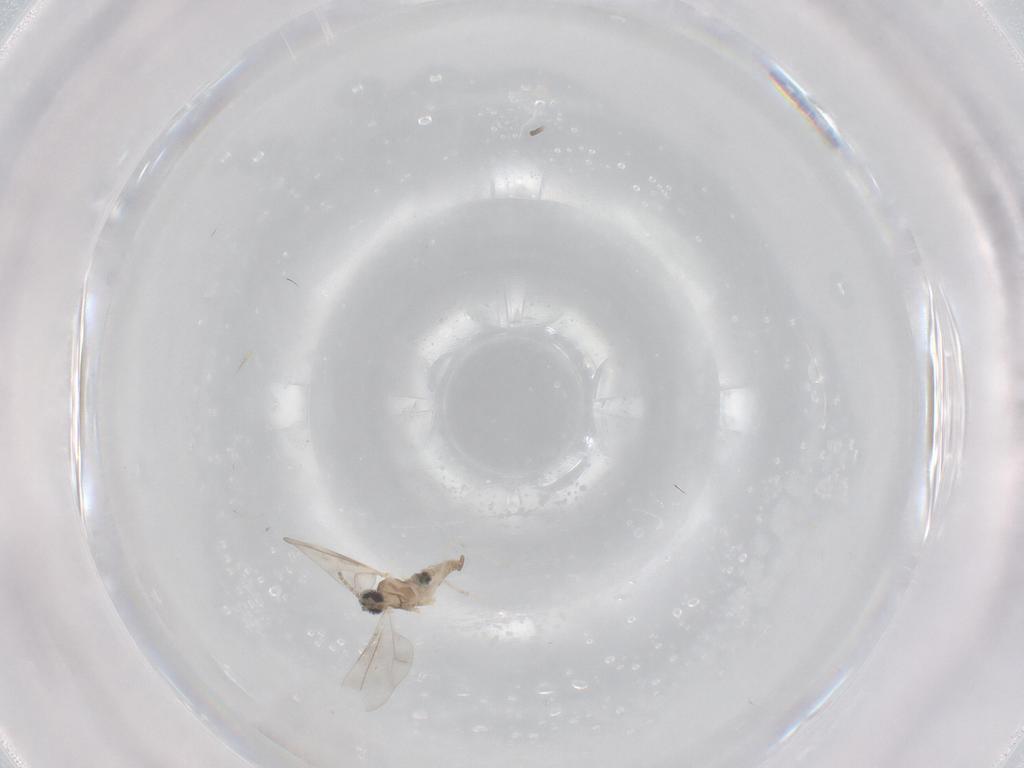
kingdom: Animalia
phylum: Arthropoda
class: Insecta
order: Diptera
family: Cecidomyiidae
